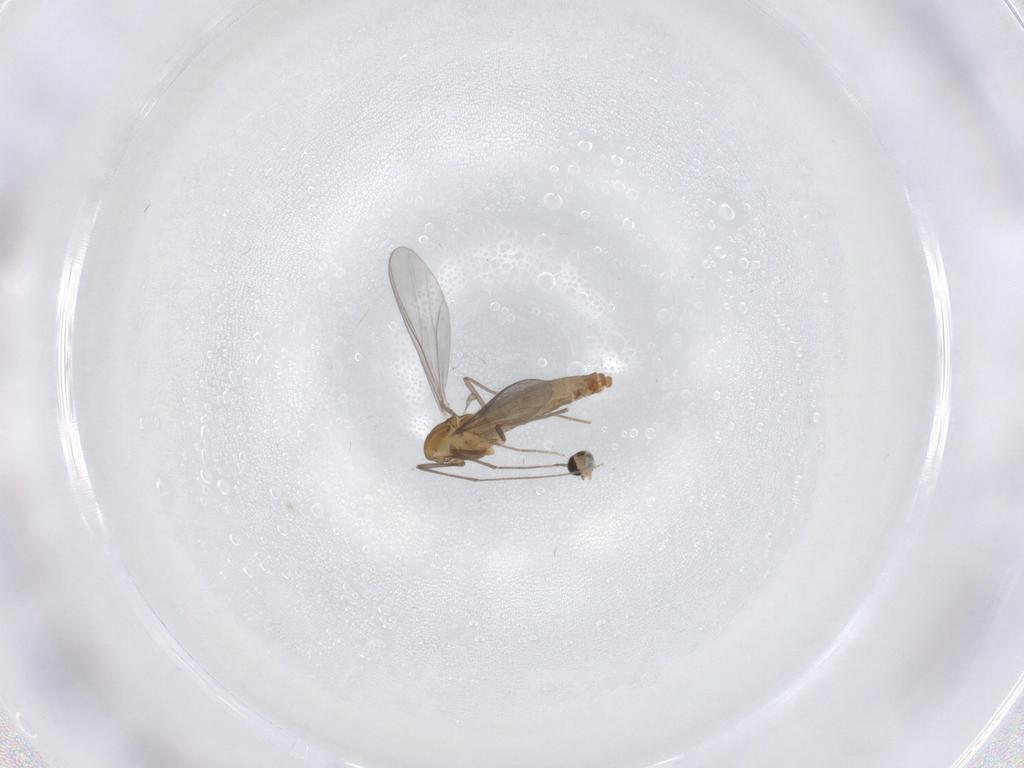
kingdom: Animalia
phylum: Arthropoda
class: Insecta
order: Diptera
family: Chironomidae
